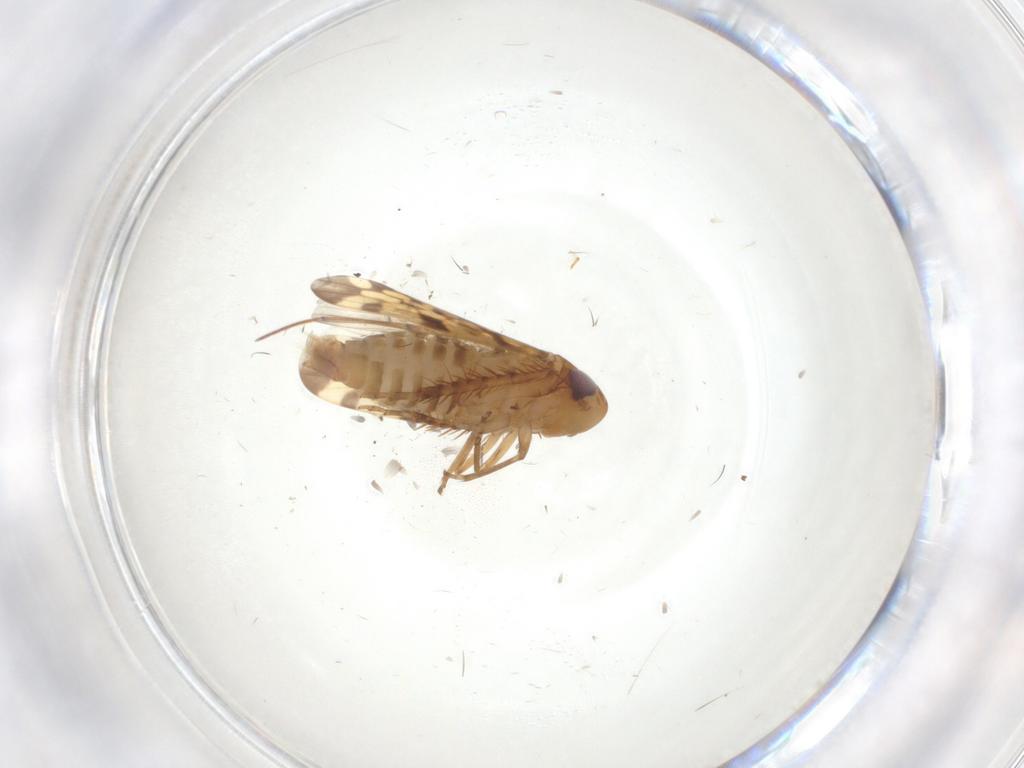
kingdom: Animalia
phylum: Arthropoda
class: Insecta
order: Hemiptera
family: Cicadellidae
